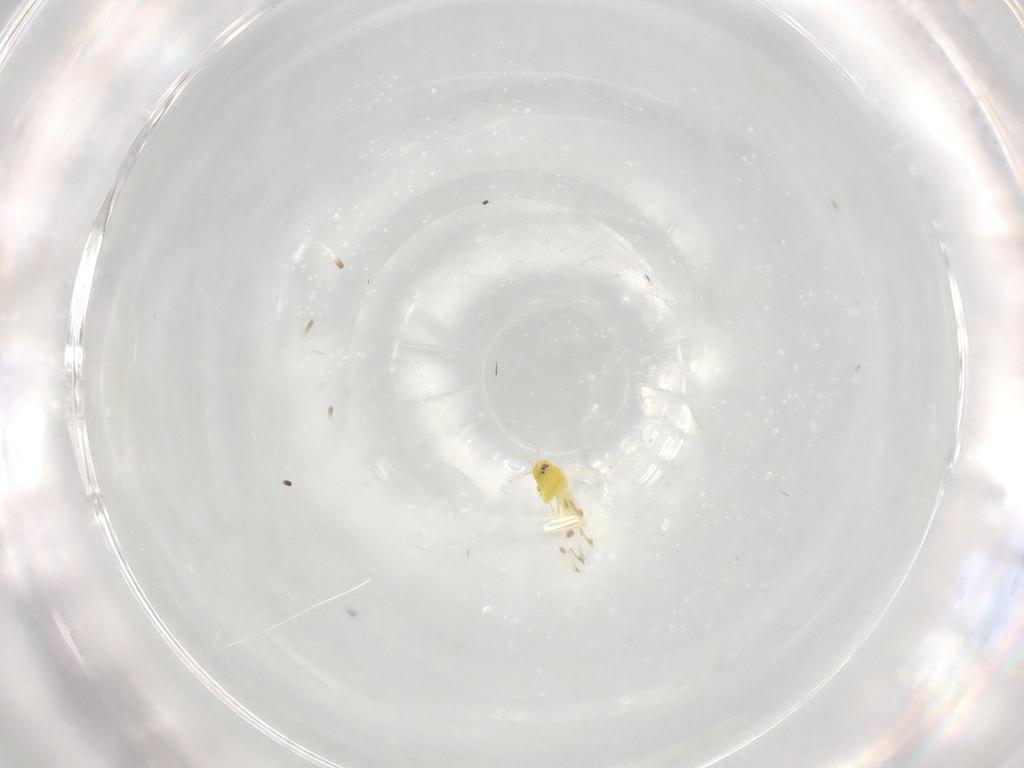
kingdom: Animalia
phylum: Arthropoda
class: Insecta
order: Hemiptera
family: Aleyrodidae
